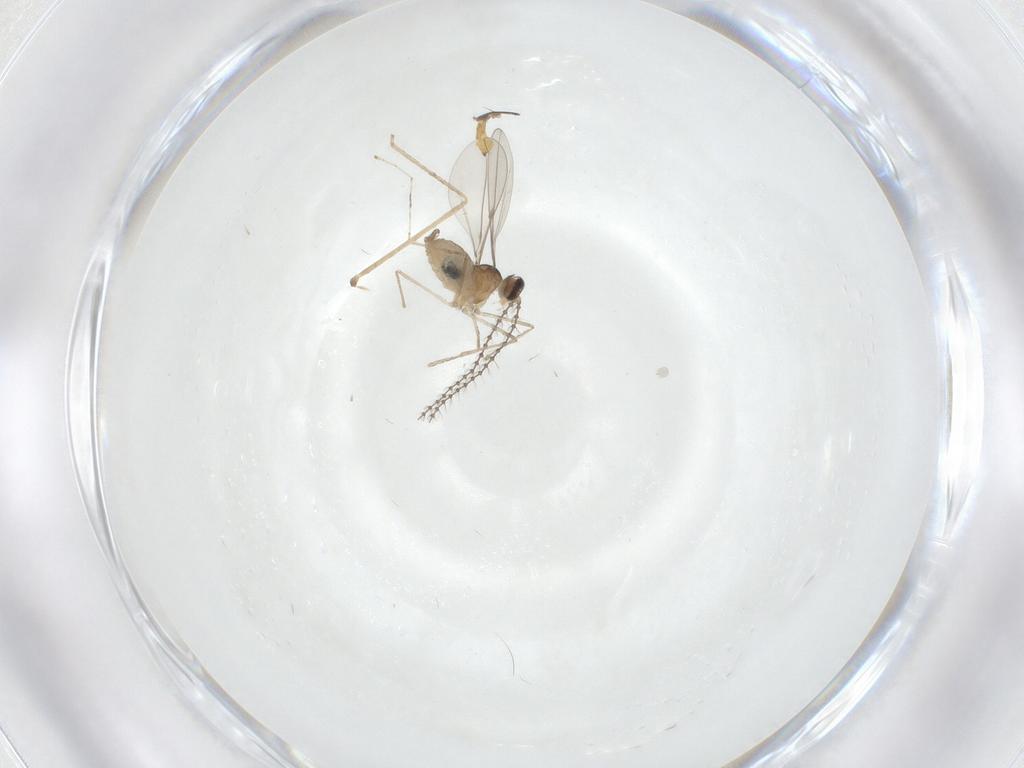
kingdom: Animalia
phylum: Arthropoda
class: Insecta
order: Diptera
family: Cecidomyiidae
